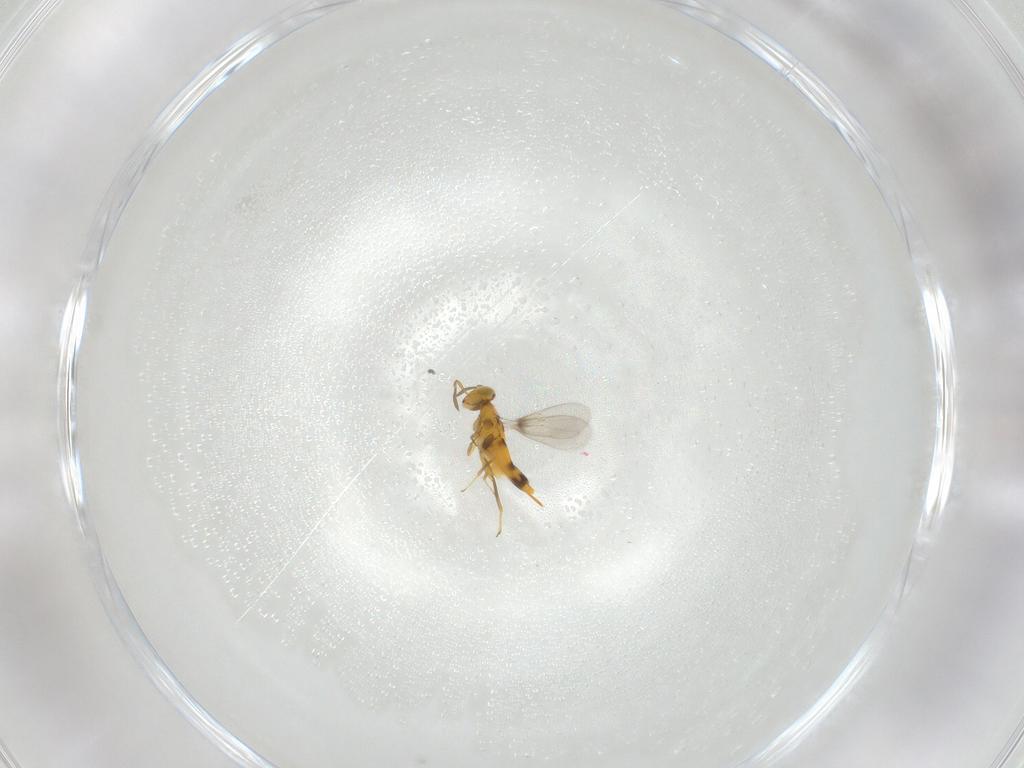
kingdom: Animalia
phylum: Arthropoda
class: Insecta
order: Hymenoptera
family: Aphelinidae
